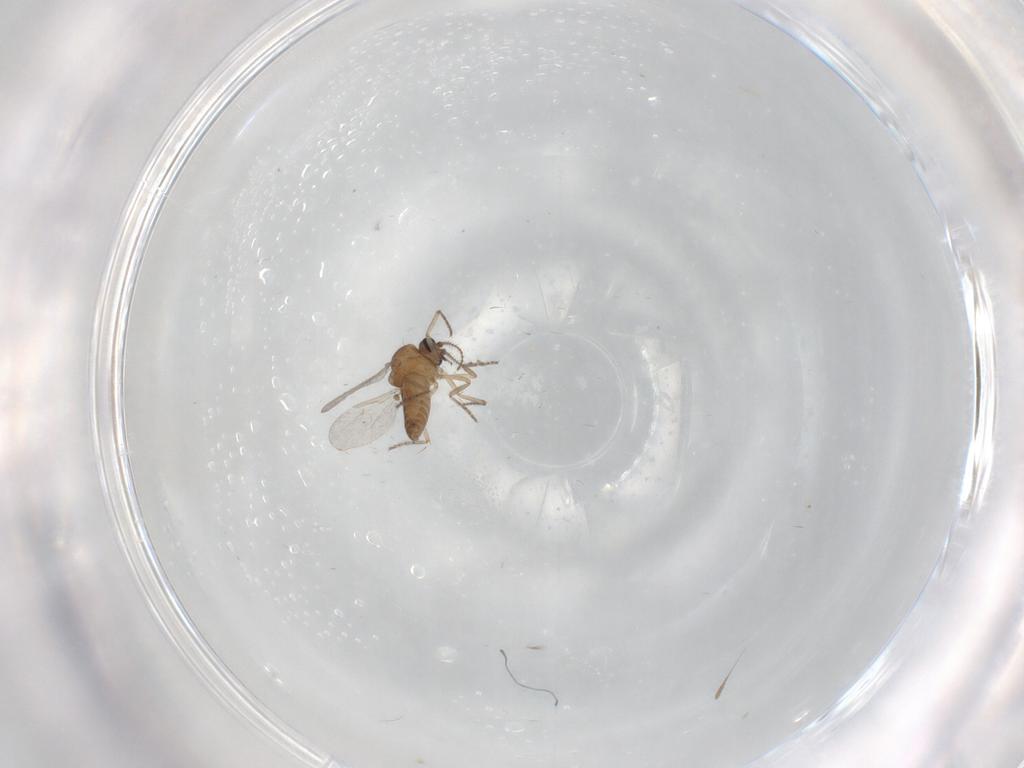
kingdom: Animalia
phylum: Arthropoda
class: Insecta
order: Diptera
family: Ceratopogonidae
